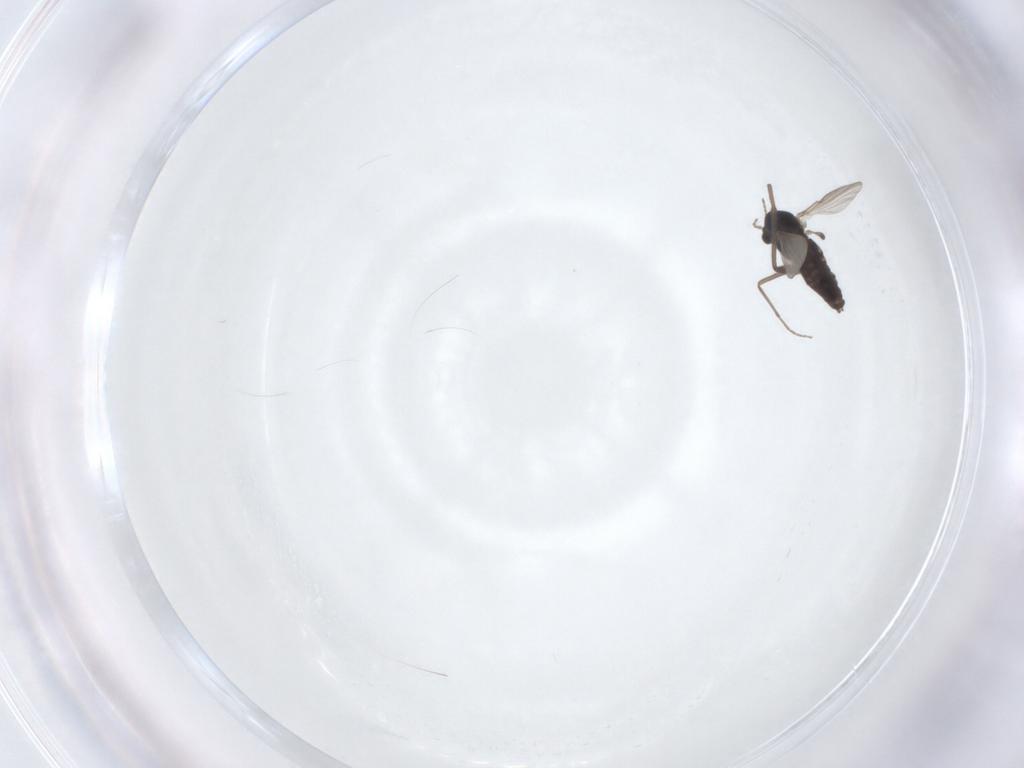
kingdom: Animalia
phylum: Arthropoda
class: Insecta
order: Diptera
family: Chironomidae
